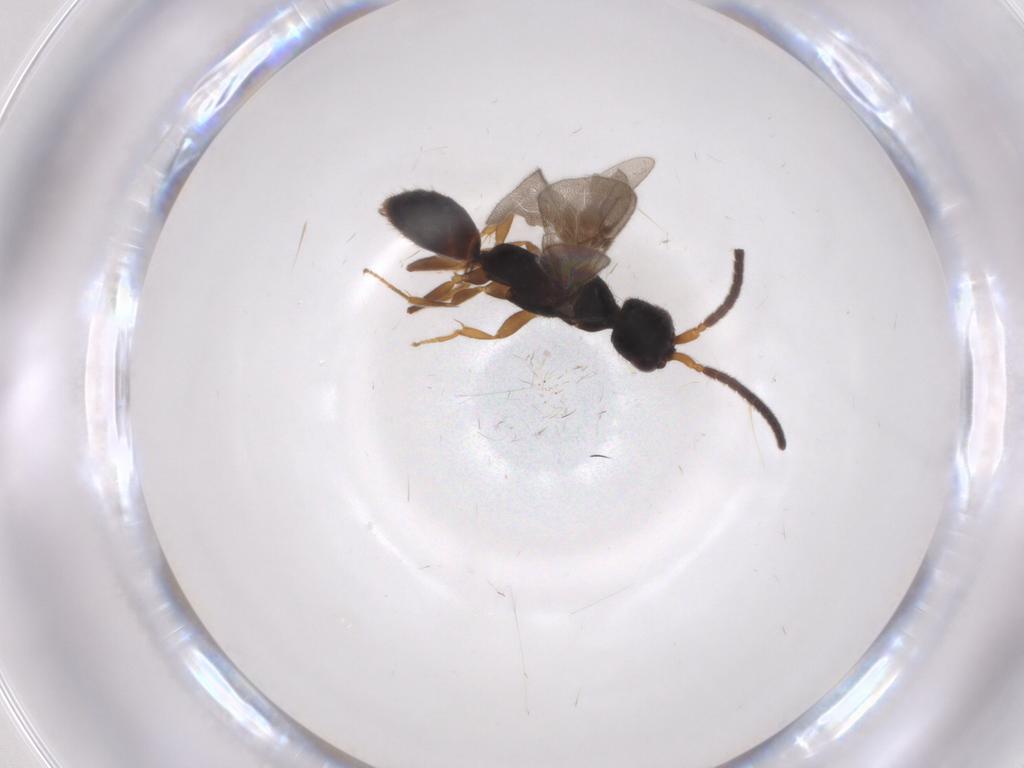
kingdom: Animalia
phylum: Arthropoda
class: Insecta
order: Hymenoptera
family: Bethylidae
